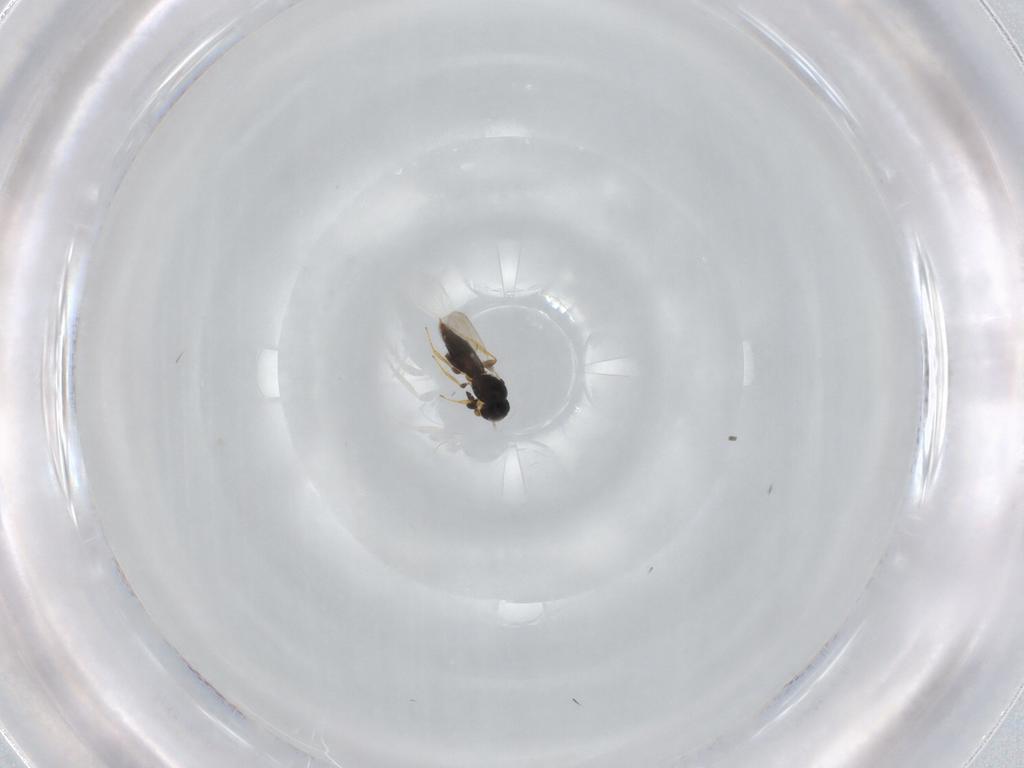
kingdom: Animalia
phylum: Arthropoda
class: Insecta
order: Hymenoptera
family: Platygastridae
